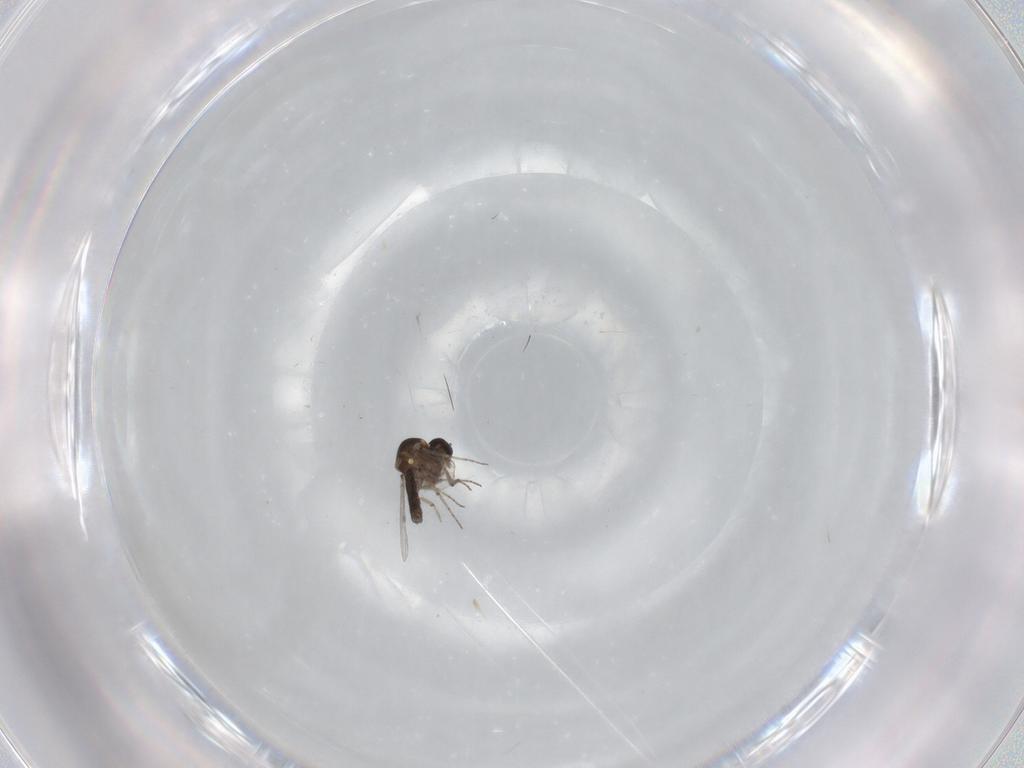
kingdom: Animalia
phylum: Arthropoda
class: Insecta
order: Diptera
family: Ceratopogonidae
